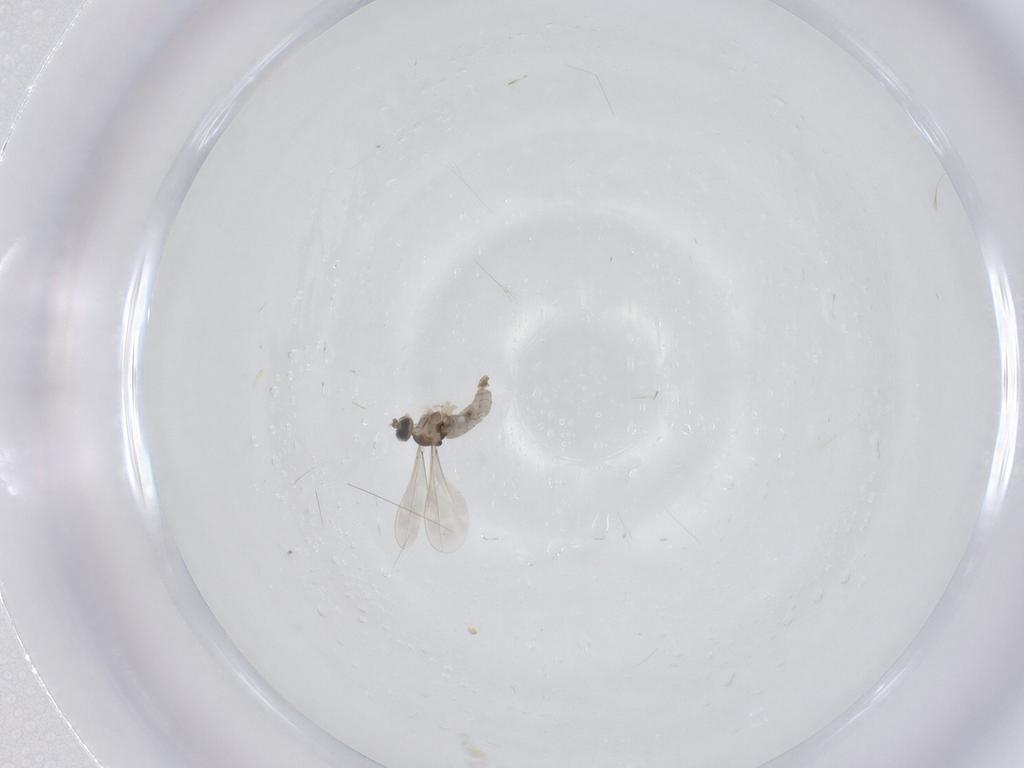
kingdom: Animalia
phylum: Arthropoda
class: Insecta
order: Diptera
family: Cecidomyiidae
